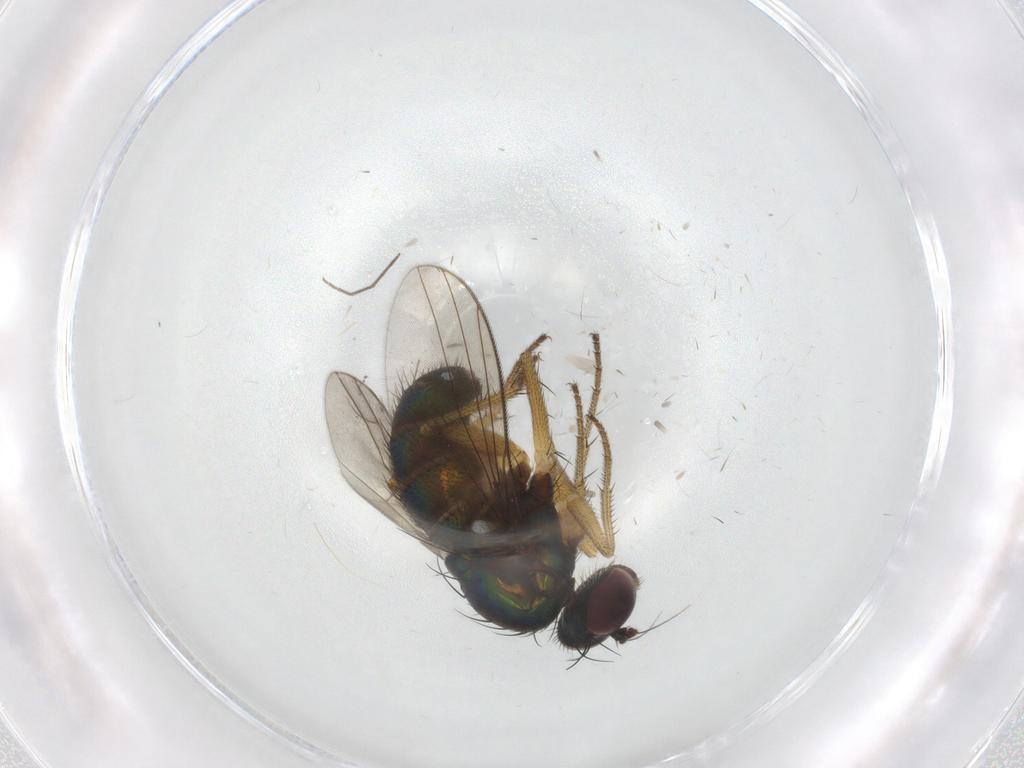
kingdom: Animalia
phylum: Arthropoda
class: Insecta
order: Diptera
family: Dolichopodidae
